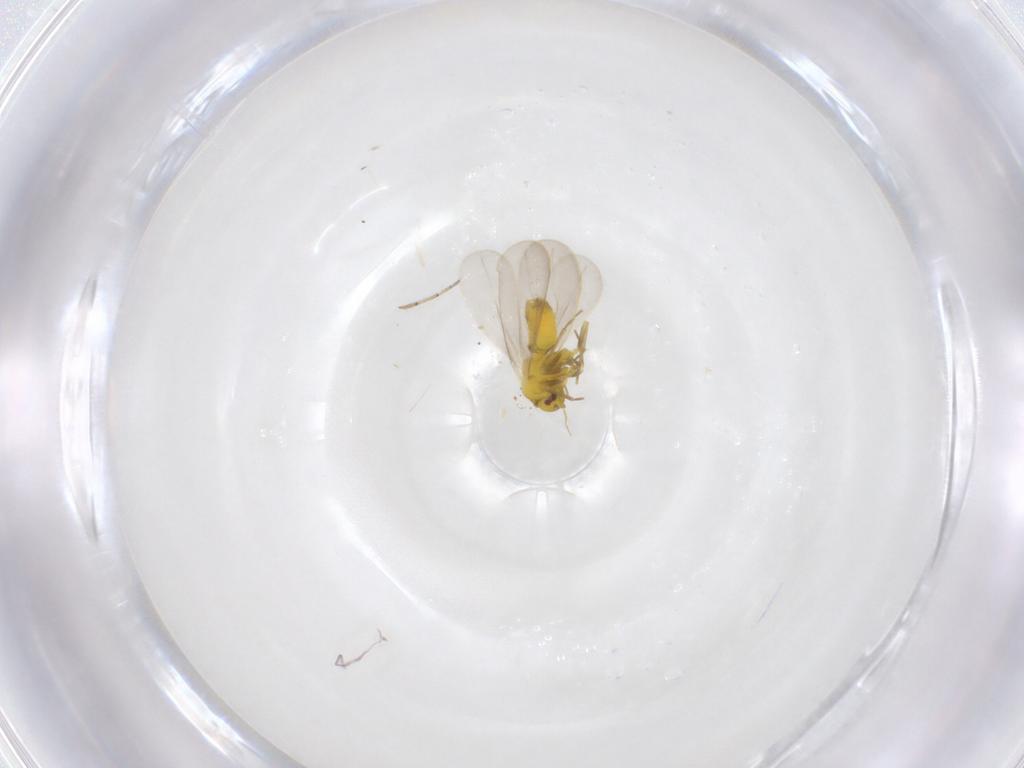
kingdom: Animalia
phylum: Arthropoda
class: Insecta
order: Hemiptera
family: Aleyrodidae
